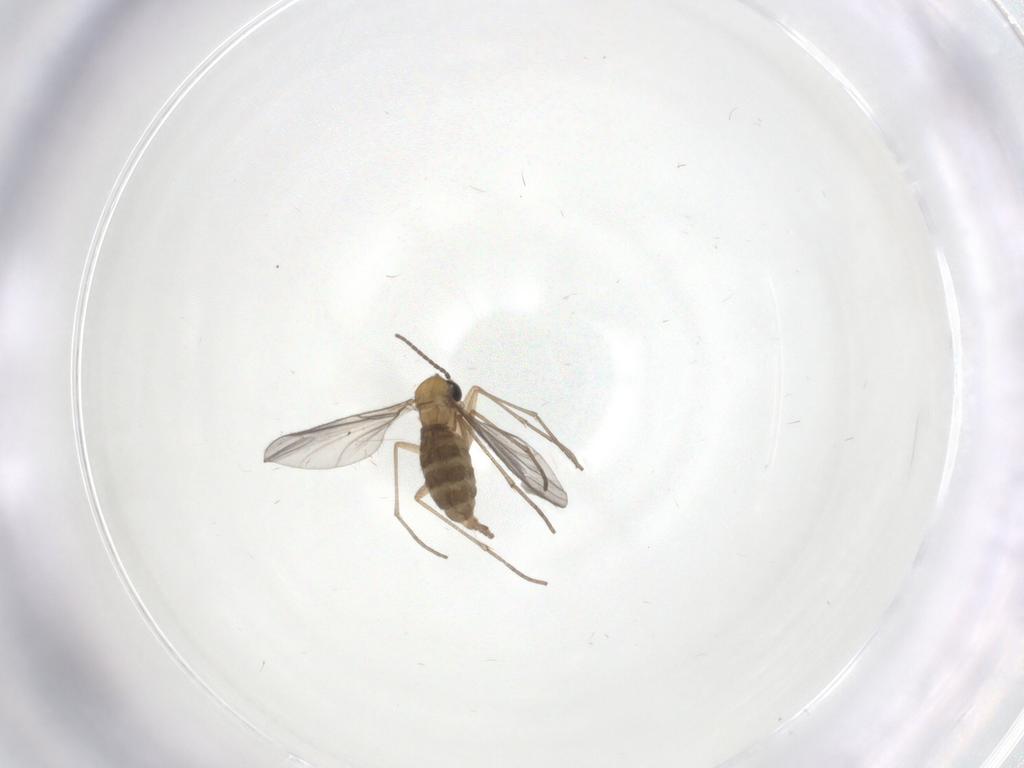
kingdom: Animalia
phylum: Arthropoda
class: Insecta
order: Diptera
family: Sciaridae
